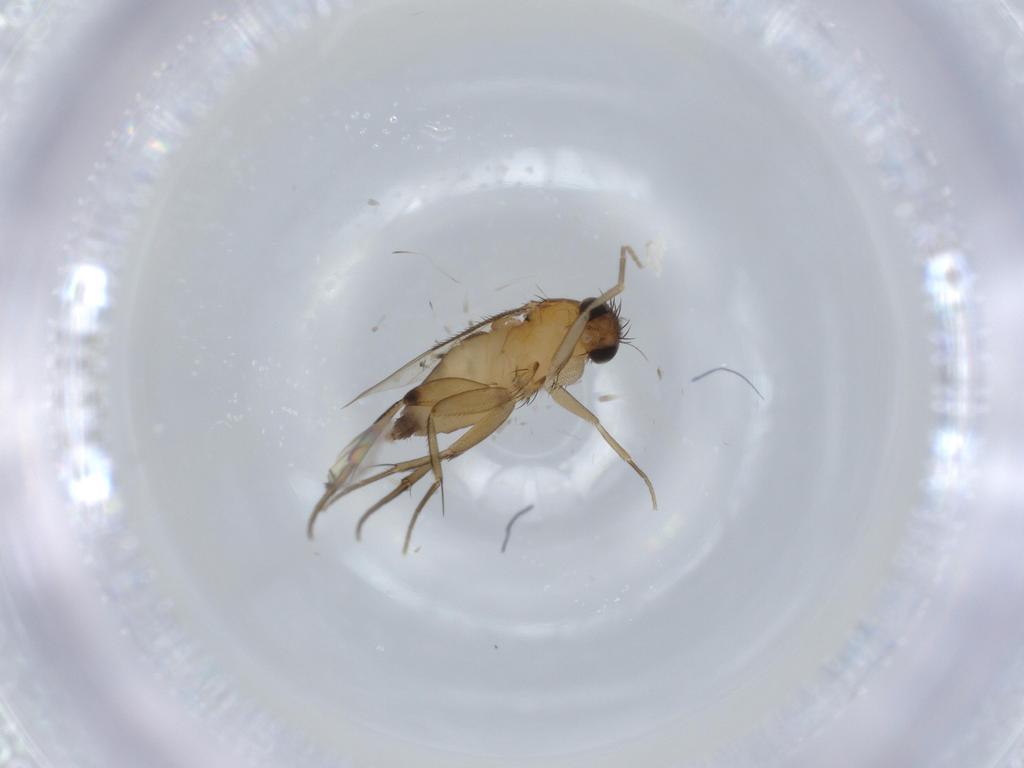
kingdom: Animalia
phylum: Arthropoda
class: Insecta
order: Diptera
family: Phoridae
